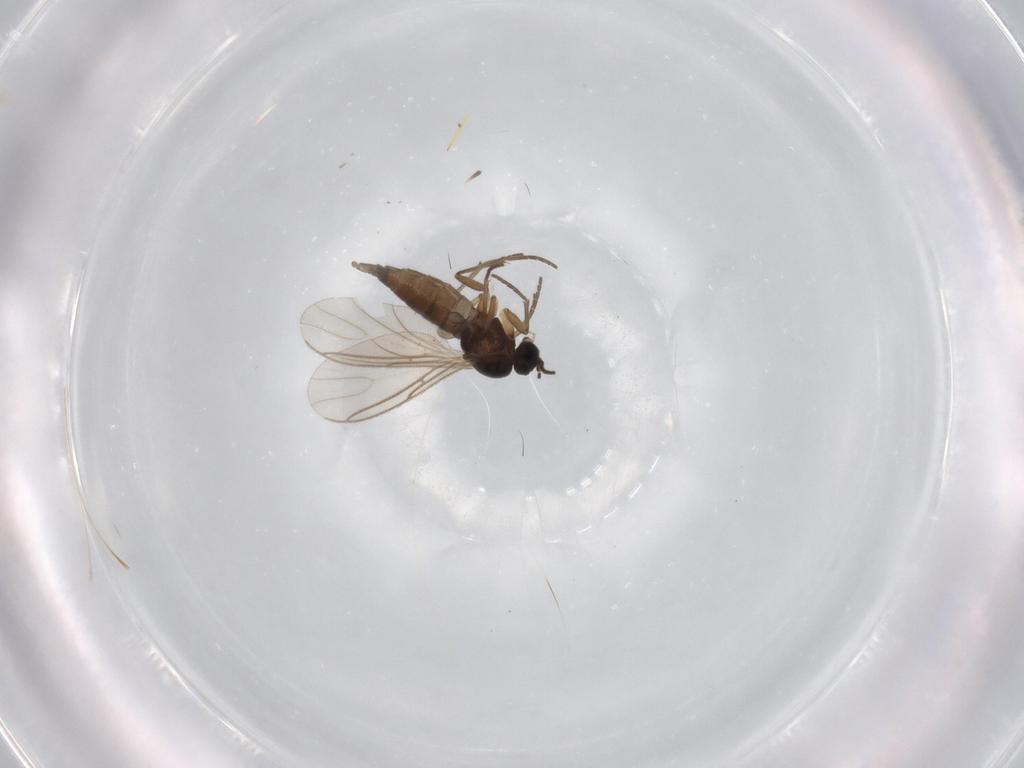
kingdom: Animalia
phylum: Arthropoda
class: Insecta
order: Diptera
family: Sciaridae
